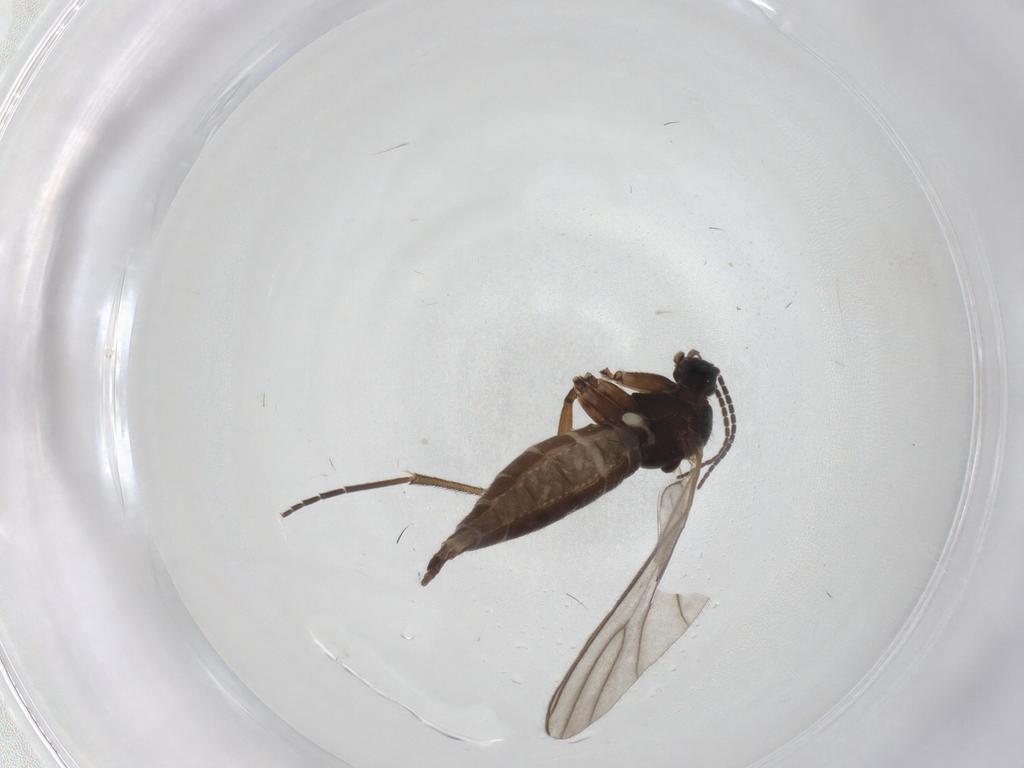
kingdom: Animalia
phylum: Arthropoda
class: Insecta
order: Diptera
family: Sciaridae
